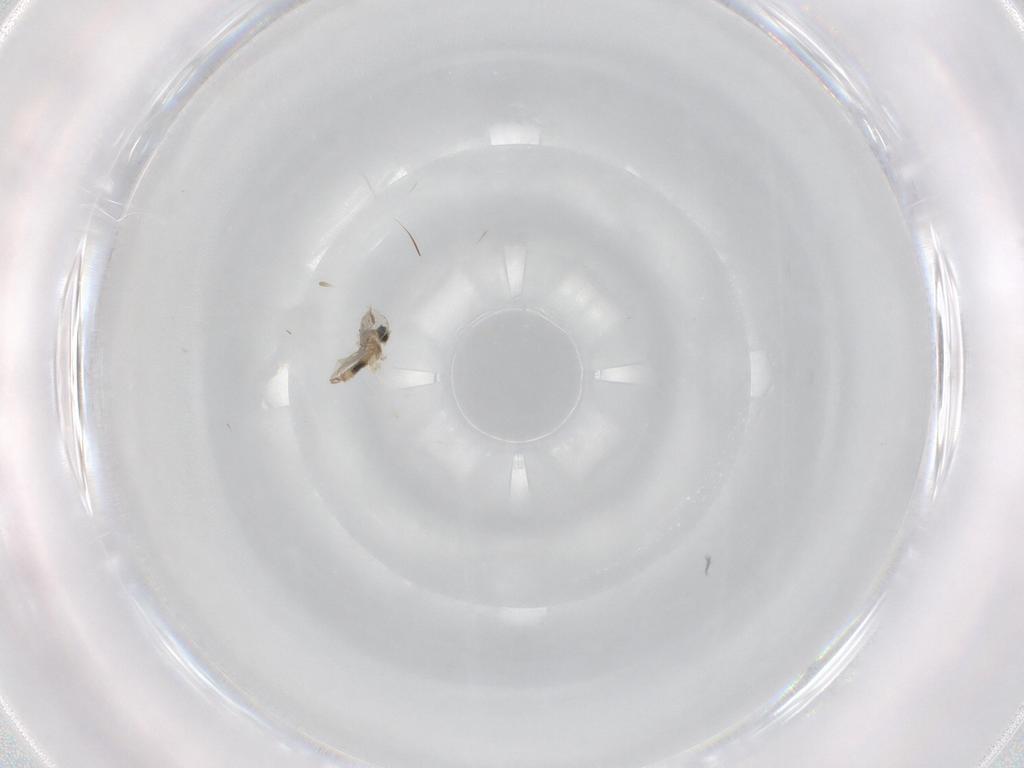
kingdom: Animalia
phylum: Arthropoda
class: Insecta
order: Diptera
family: Cecidomyiidae
